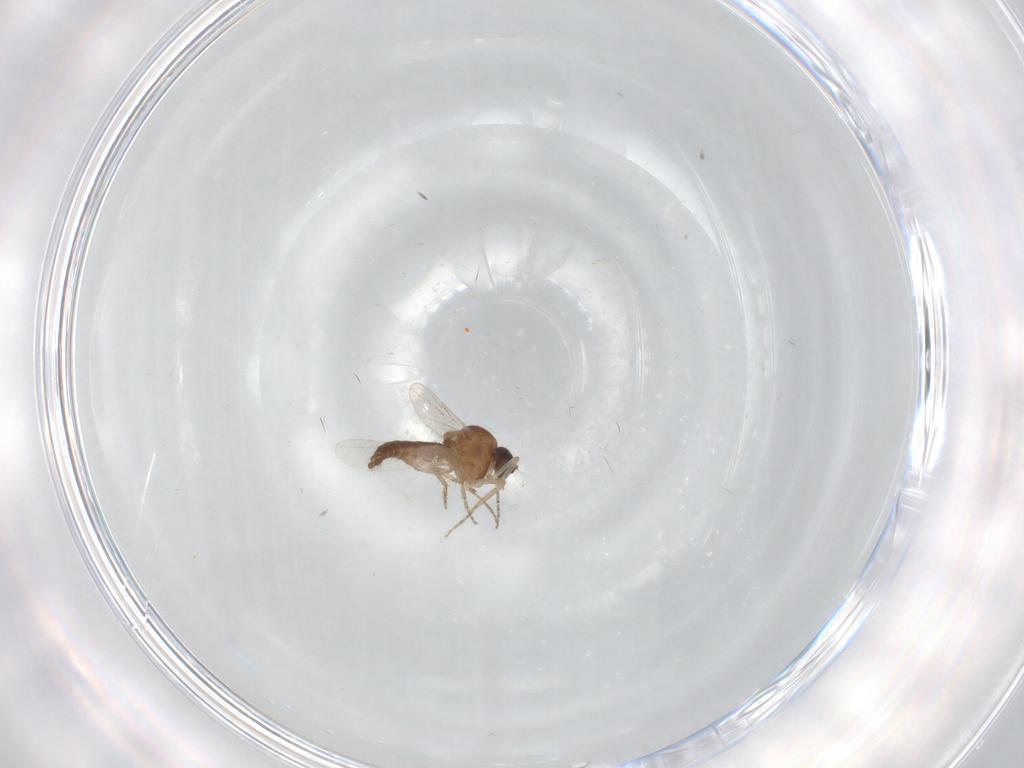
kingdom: Animalia
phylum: Arthropoda
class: Insecta
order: Diptera
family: Ceratopogonidae
